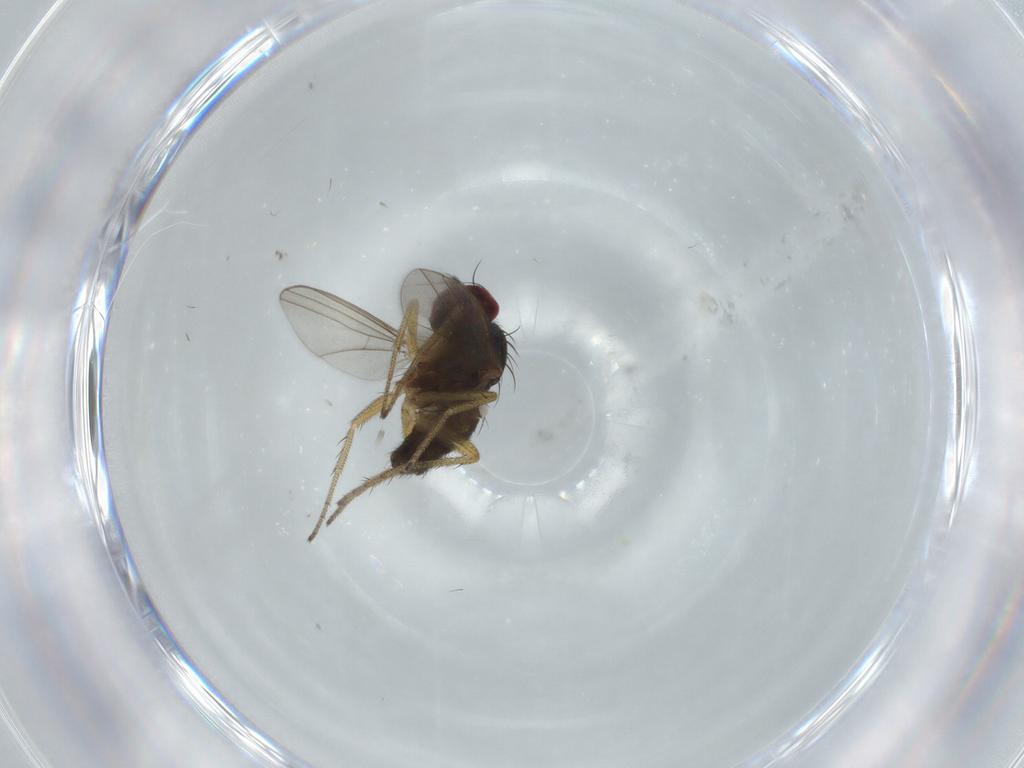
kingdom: Animalia
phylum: Arthropoda
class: Insecta
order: Diptera
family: Dolichopodidae
